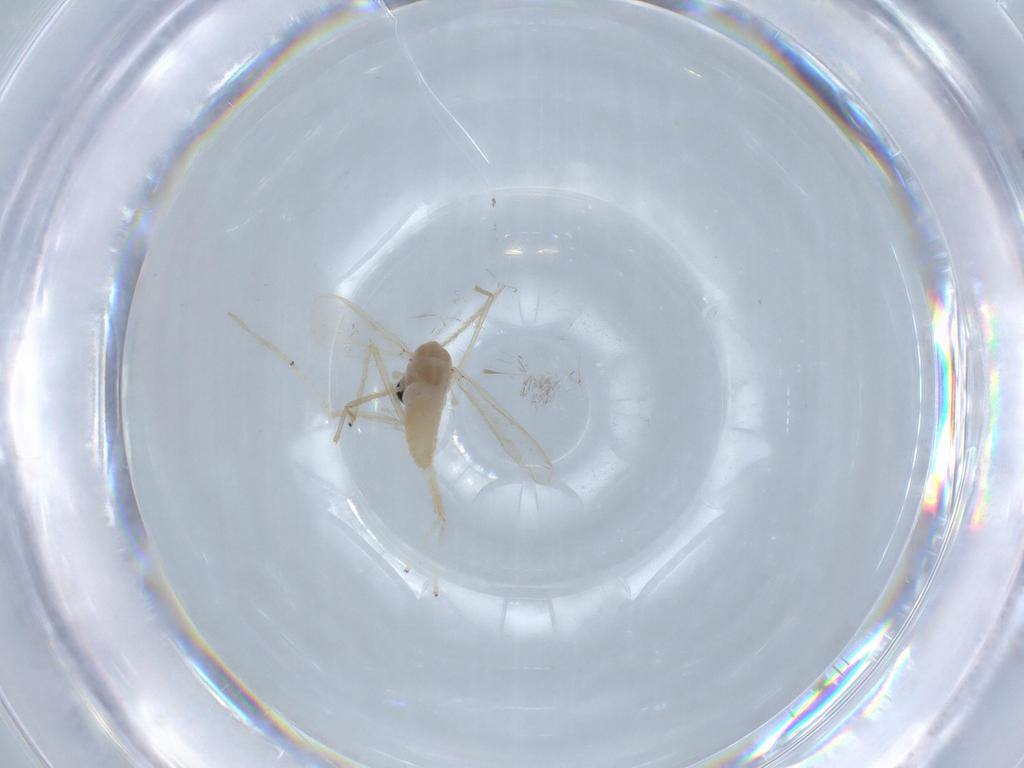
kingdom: Animalia
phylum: Arthropoda
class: Insecta
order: Diptera
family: Chironomidae
